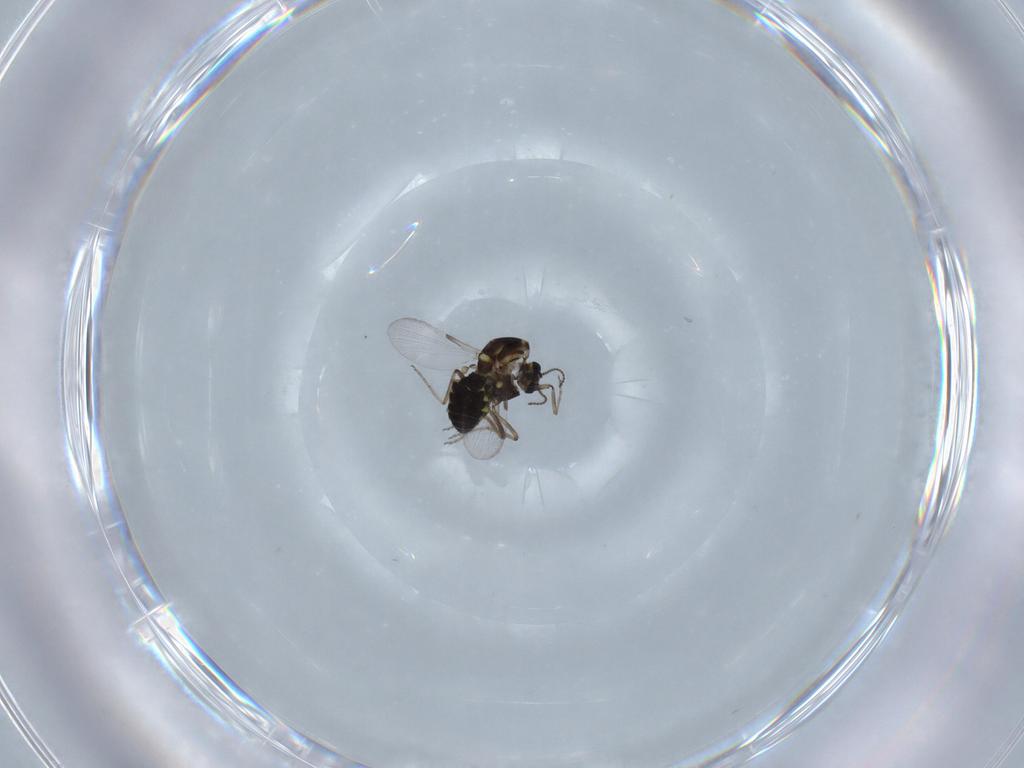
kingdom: Animalia
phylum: Arthropoda
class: Insecta
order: Diptera
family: Ceratopogonidae
